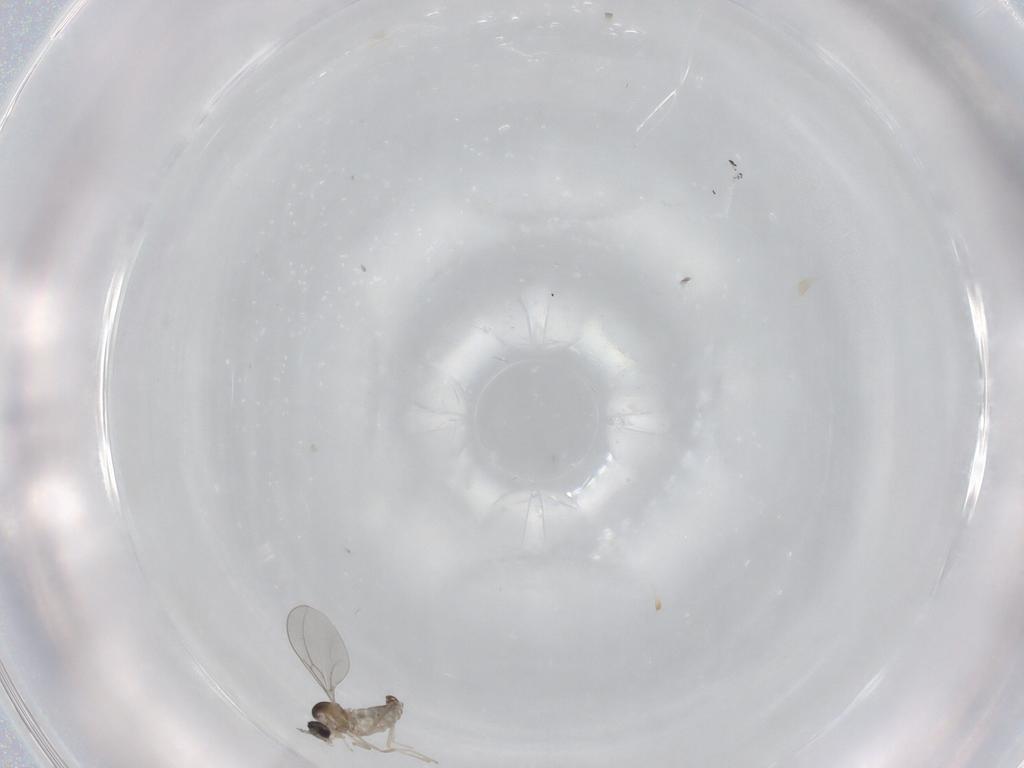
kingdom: Animalia
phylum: Arthropoda
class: Insecta
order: Diptera
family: Cecidomyiidae
